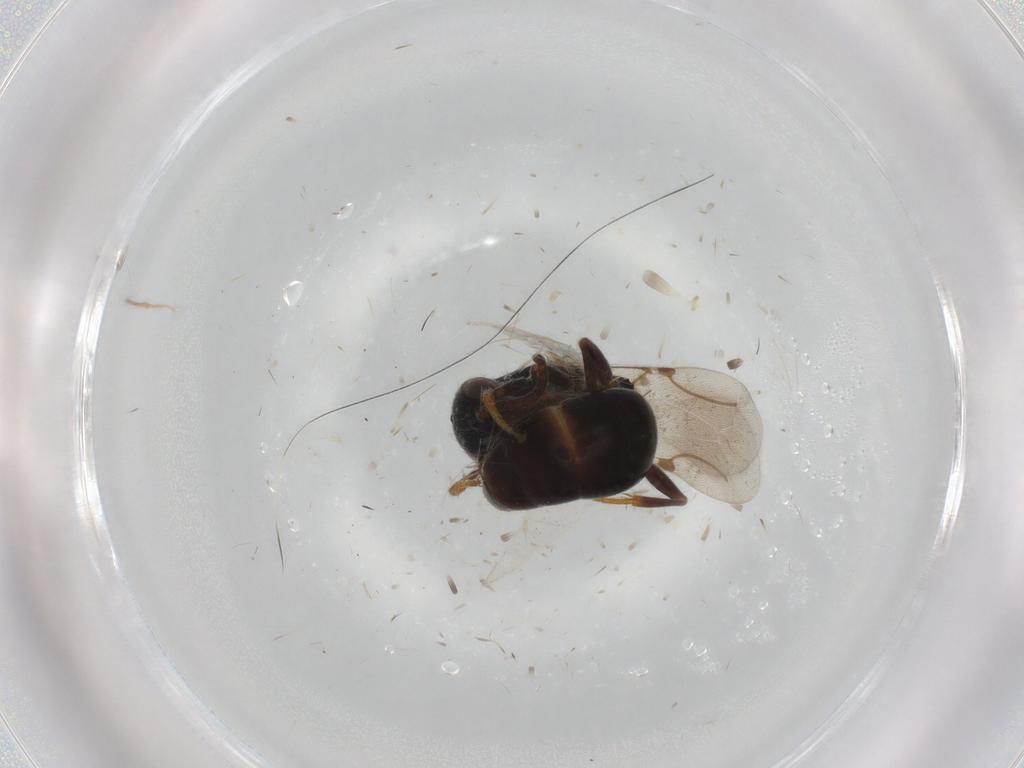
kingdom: Animalia
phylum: Arthropoda
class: Insecta
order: Hymenoptera
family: Bethylidae
